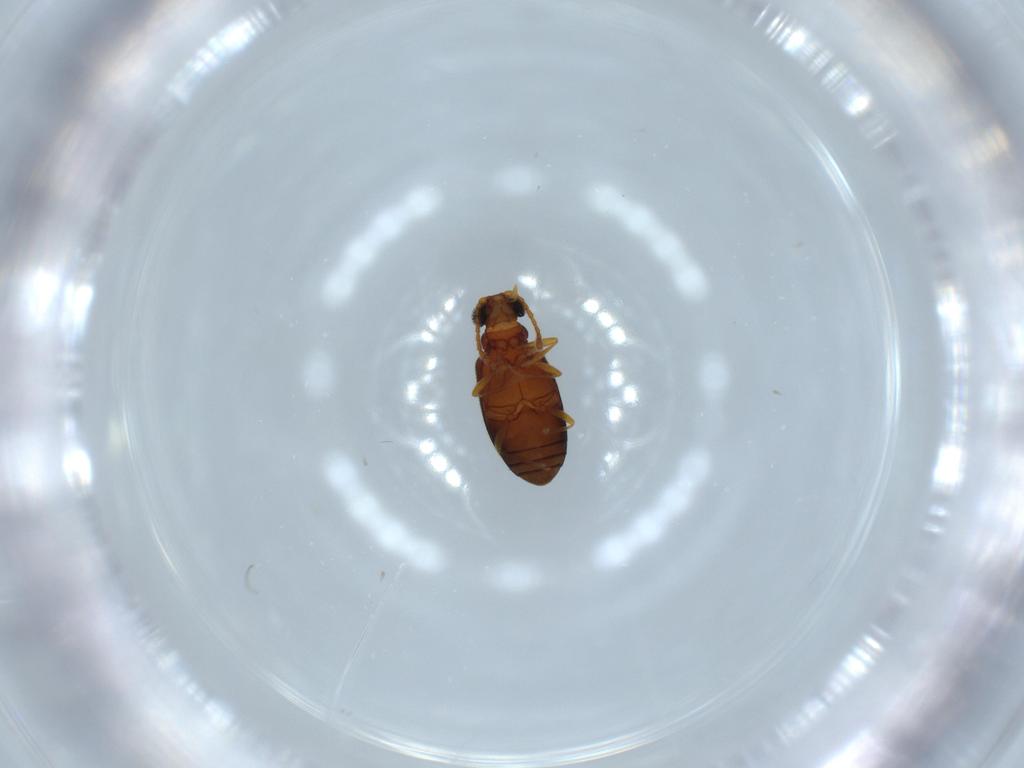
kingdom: Animalia
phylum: Arthropoda
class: Insecta
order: Coleoptera
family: Aderidae
